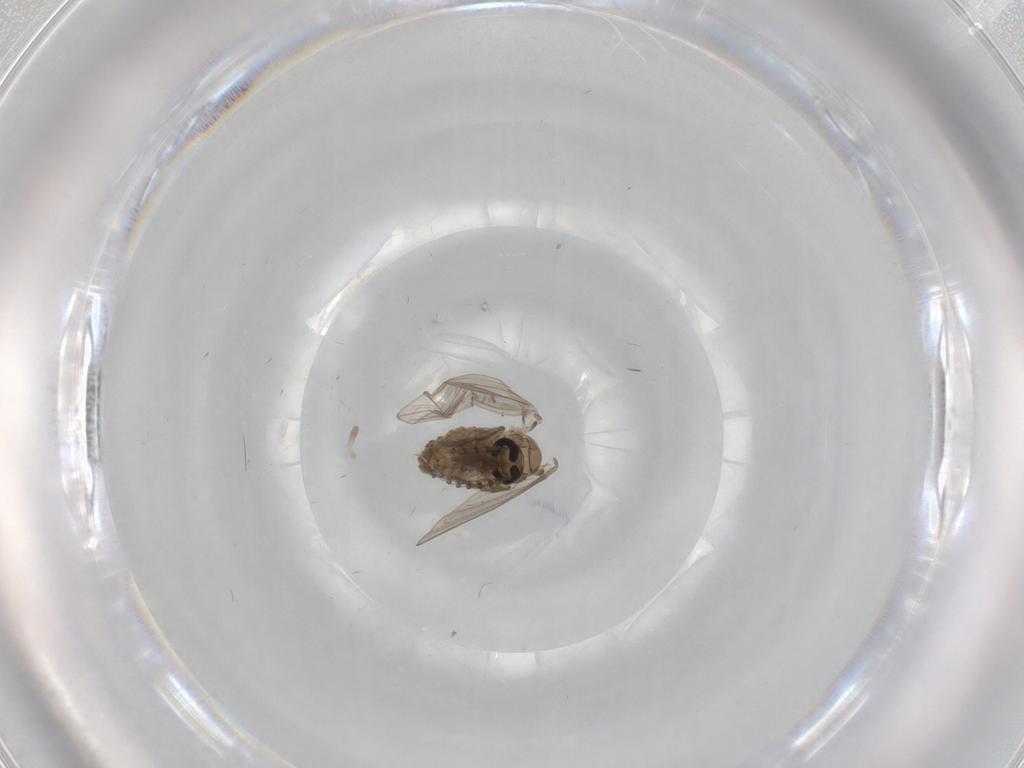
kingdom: Animalia
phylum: Arthropoda
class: Insecta
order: Diptera
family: Psychodidae
